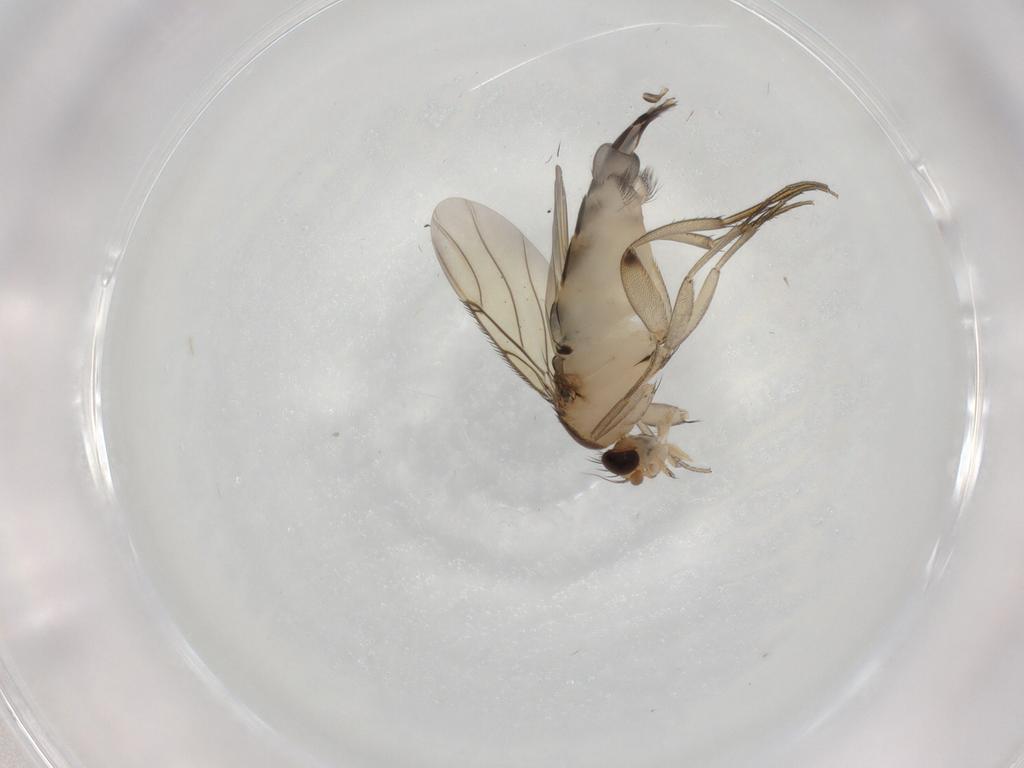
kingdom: Animalia
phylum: Arthropoda
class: Insecta
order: Diptera
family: Phoridae
